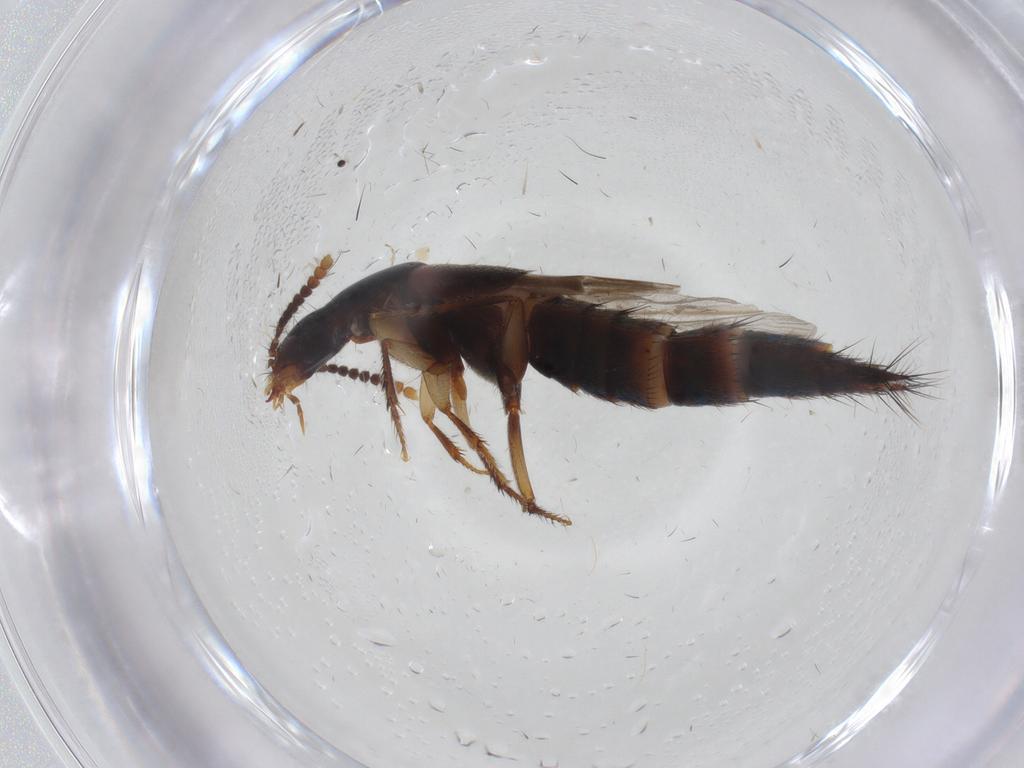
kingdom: Animalia
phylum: Arthropoda
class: Insecta
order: Coleoptera
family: Staphylinidae
